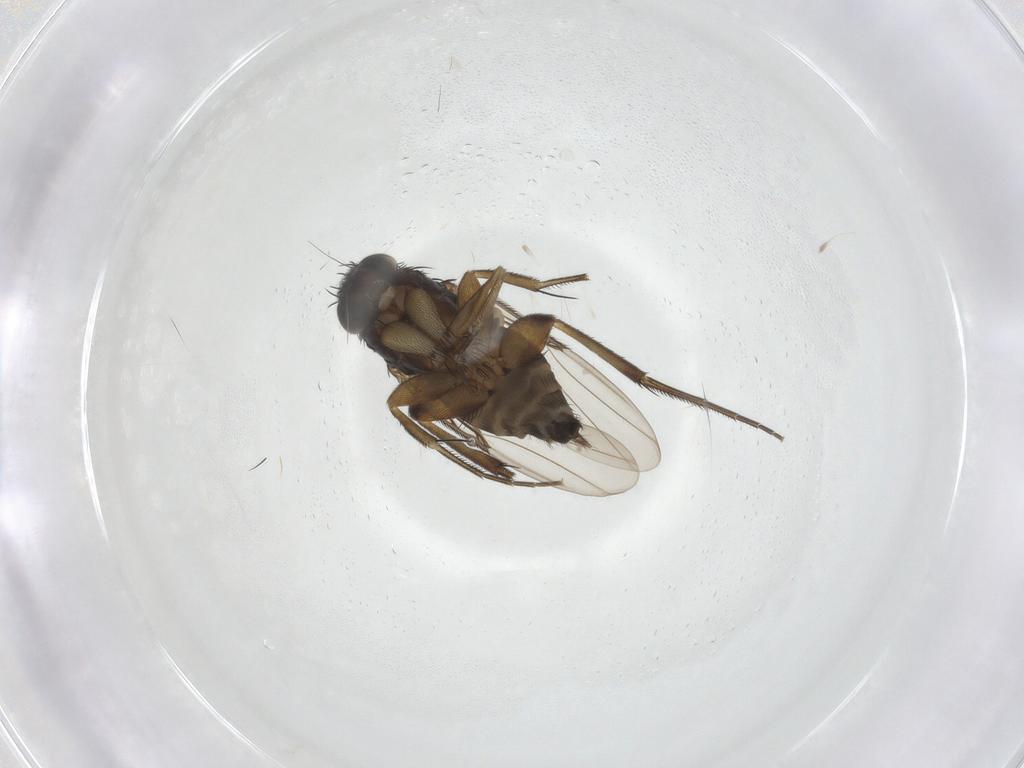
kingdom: Animalia
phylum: Arthropoda
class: Insecta
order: Diptera
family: Phoridae
